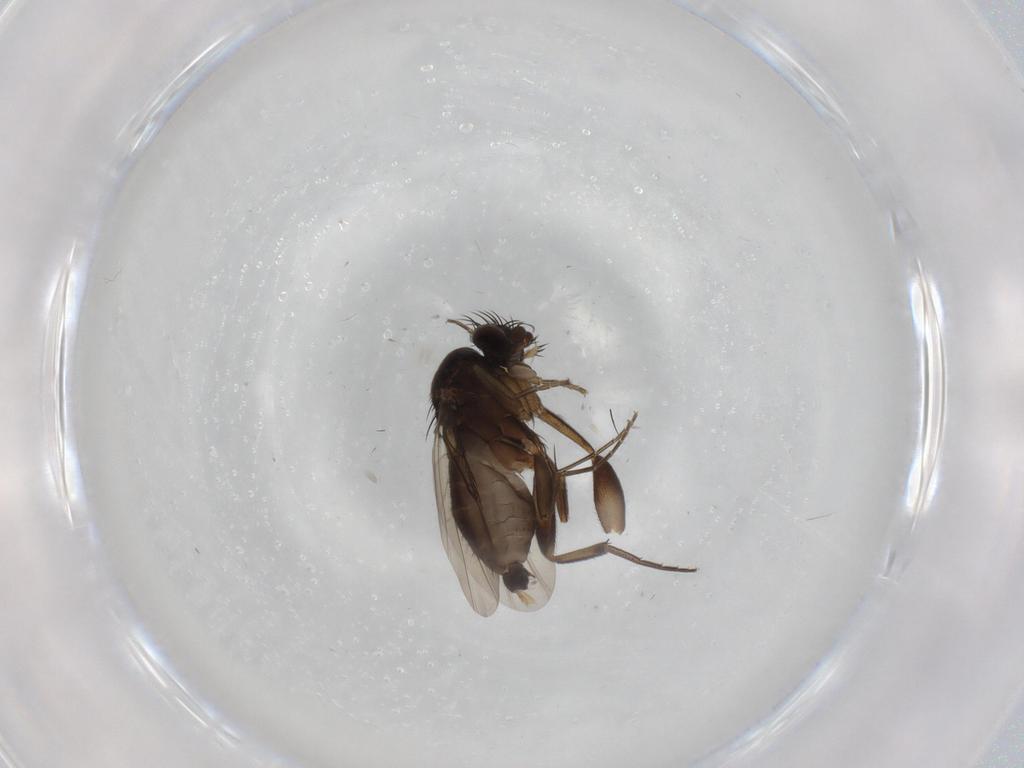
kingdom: Animalia
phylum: Arthropoda
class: Insecta
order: Diptera
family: Phoridae
